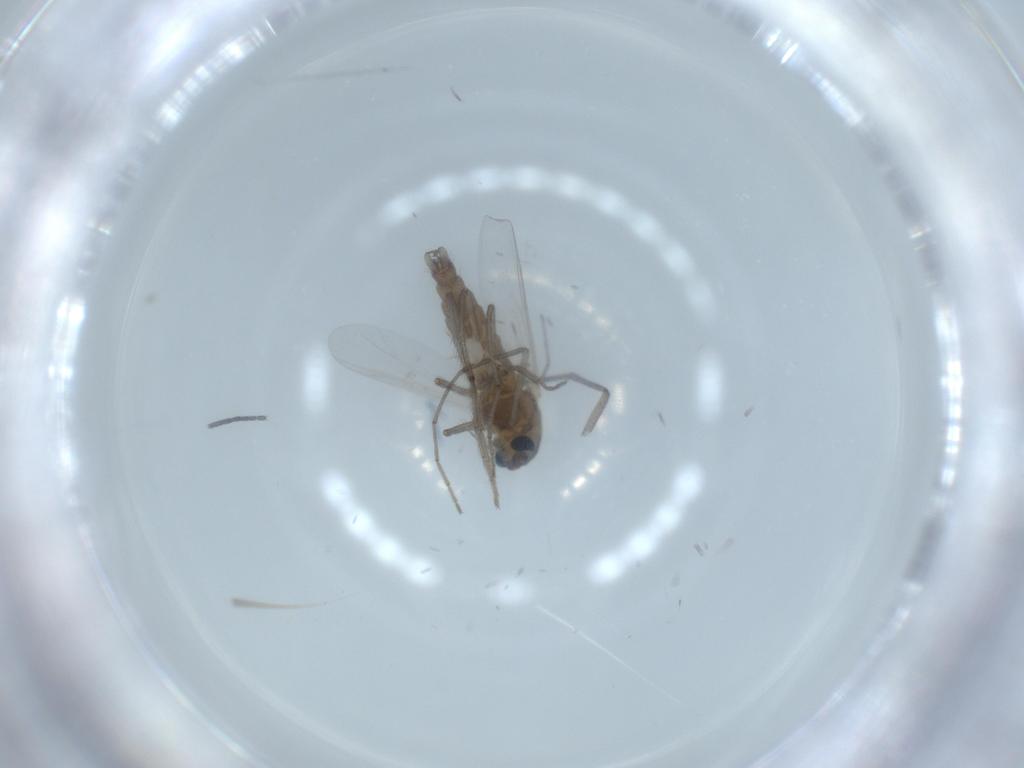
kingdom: Animalia
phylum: Arthropoda
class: Insecta
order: Diptera
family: Chironomidae
